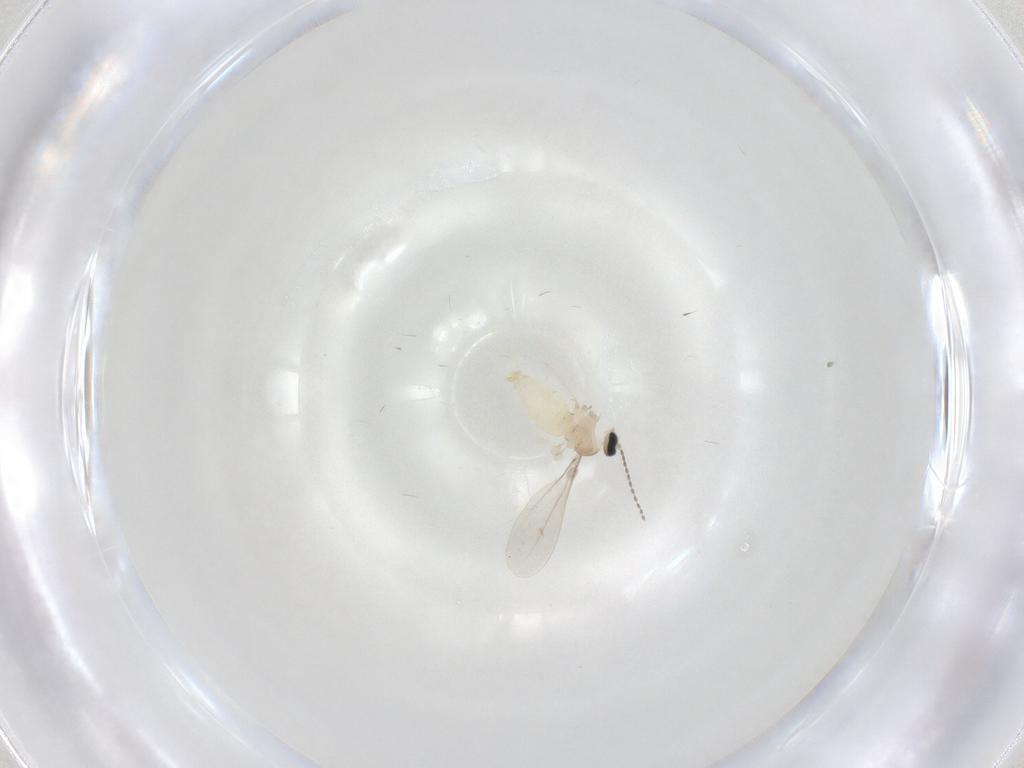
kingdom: Animalia
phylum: Arthropoda
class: Insecta
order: Diptera
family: Cecidomyiidae
